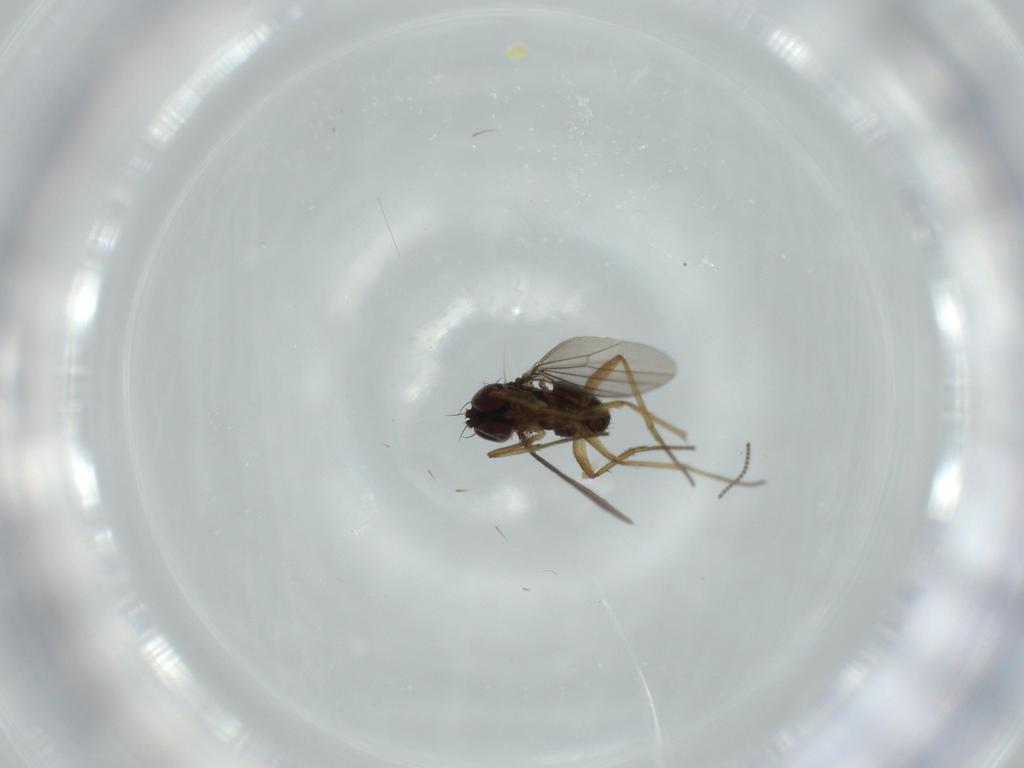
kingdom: Animalia
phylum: Arthropoda
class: Insecta
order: Diptera
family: Dolichopodidae
